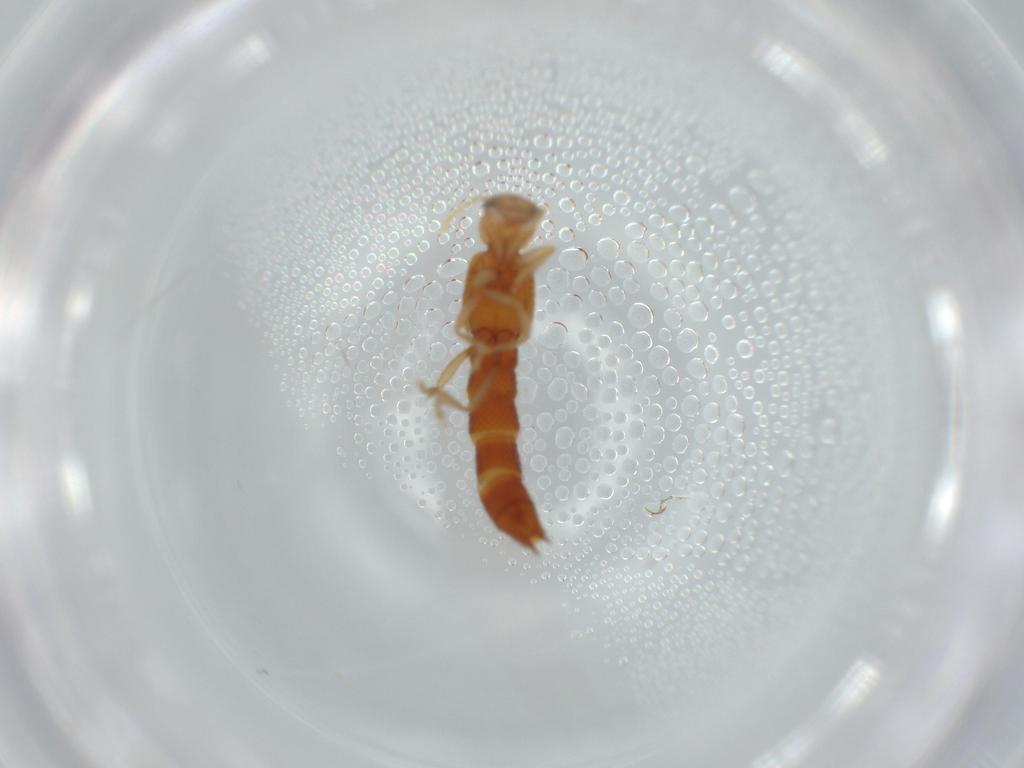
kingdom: Animalia
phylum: Arthropoda
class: Insecta
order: Coleoptera
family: Staphylinidae
